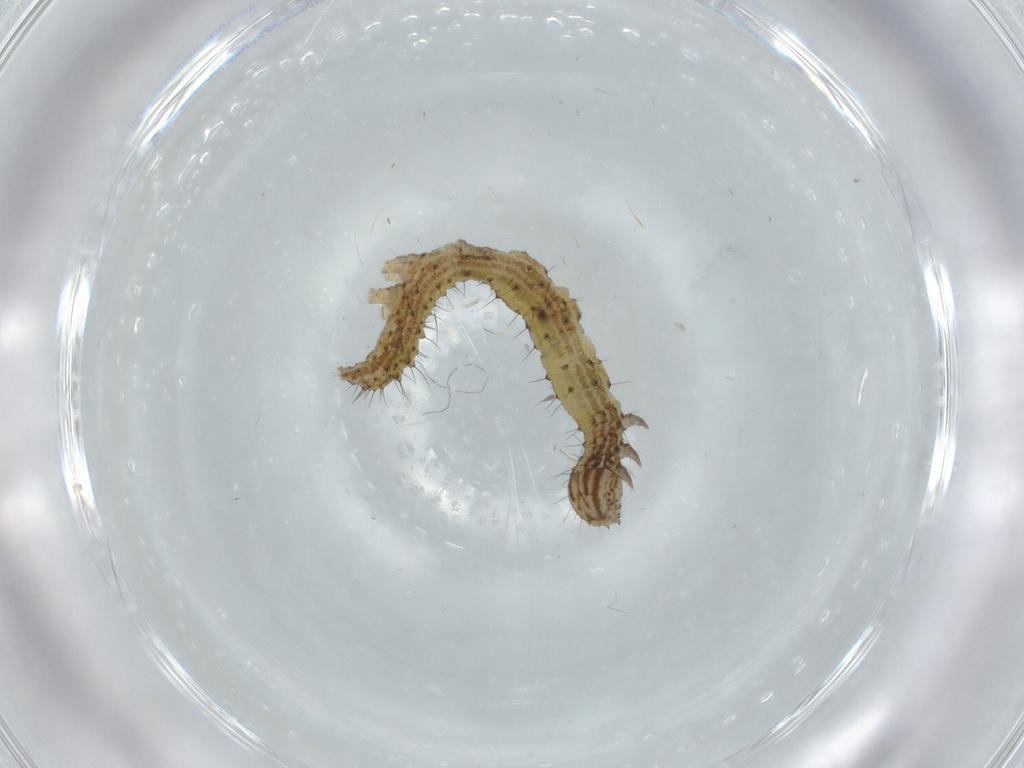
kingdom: Animalia
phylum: Arthropoda
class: Insecta
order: Lepidoptera
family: Erebidae
